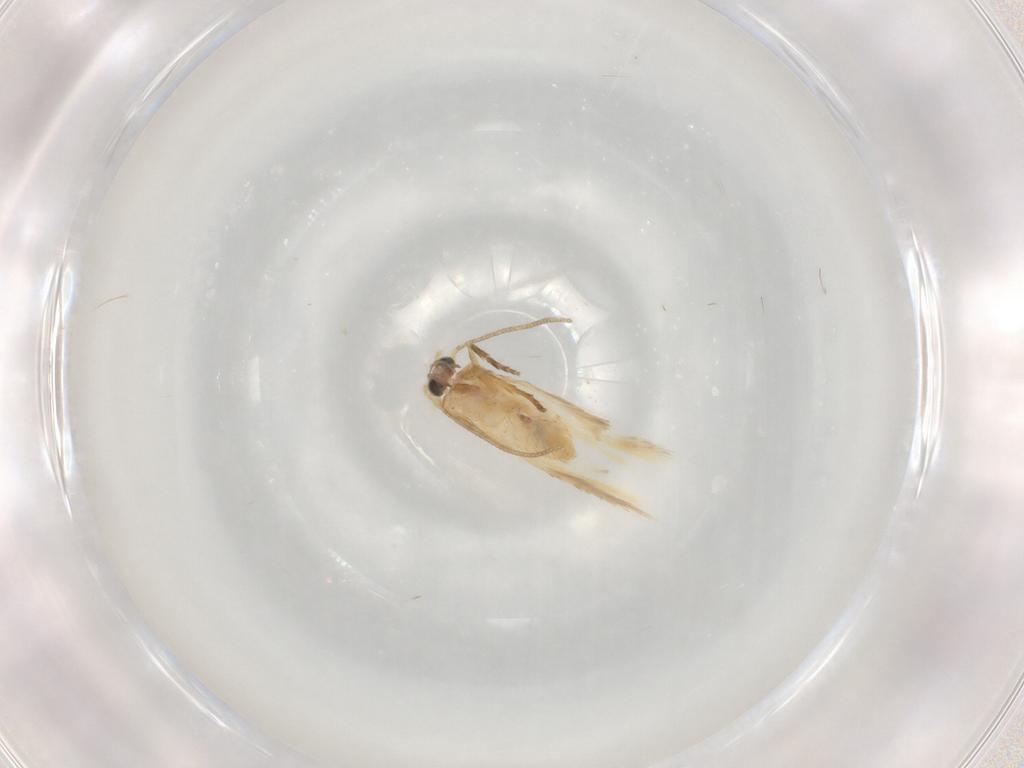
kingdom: Animalia
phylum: Arthropoda
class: Insecta
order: Lepidoptera
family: Nepticulidae
